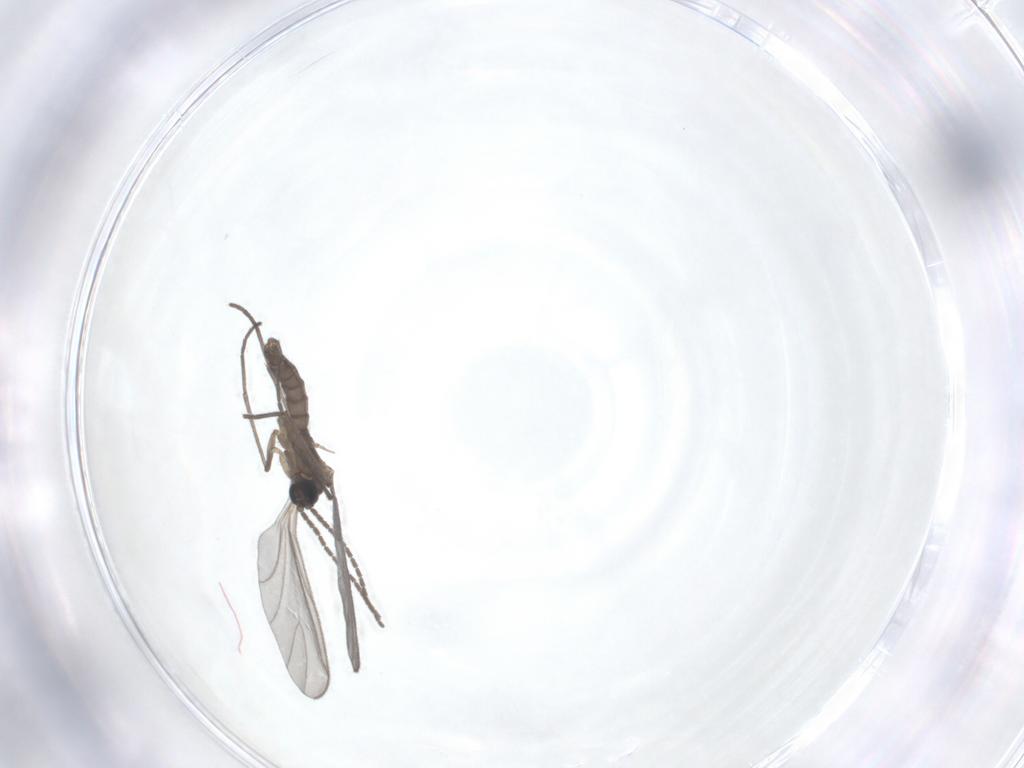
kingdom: Animalia
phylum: Arthropoda
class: Insecta
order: Diptera
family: Sciaridae
